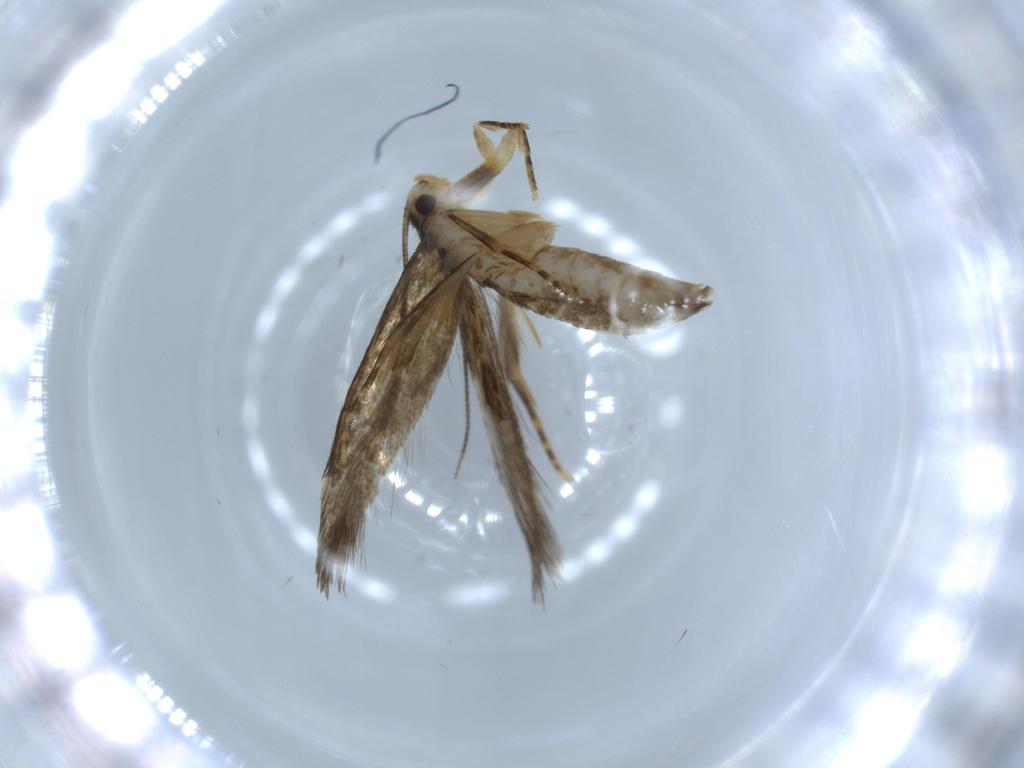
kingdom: Animalia
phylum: Arthropoda
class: Insecta
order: Lepidoptera
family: Tineidae
